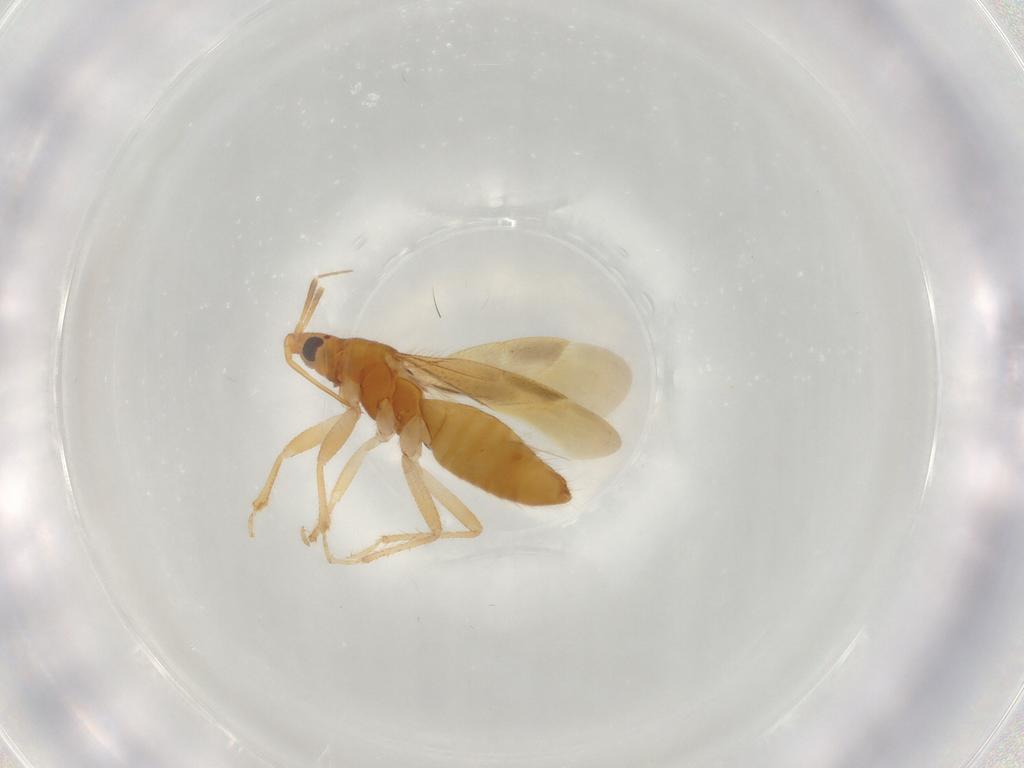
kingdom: Animalia
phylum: Arthropoda
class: Insecta
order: Hemiptera
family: Lasiochilidae
